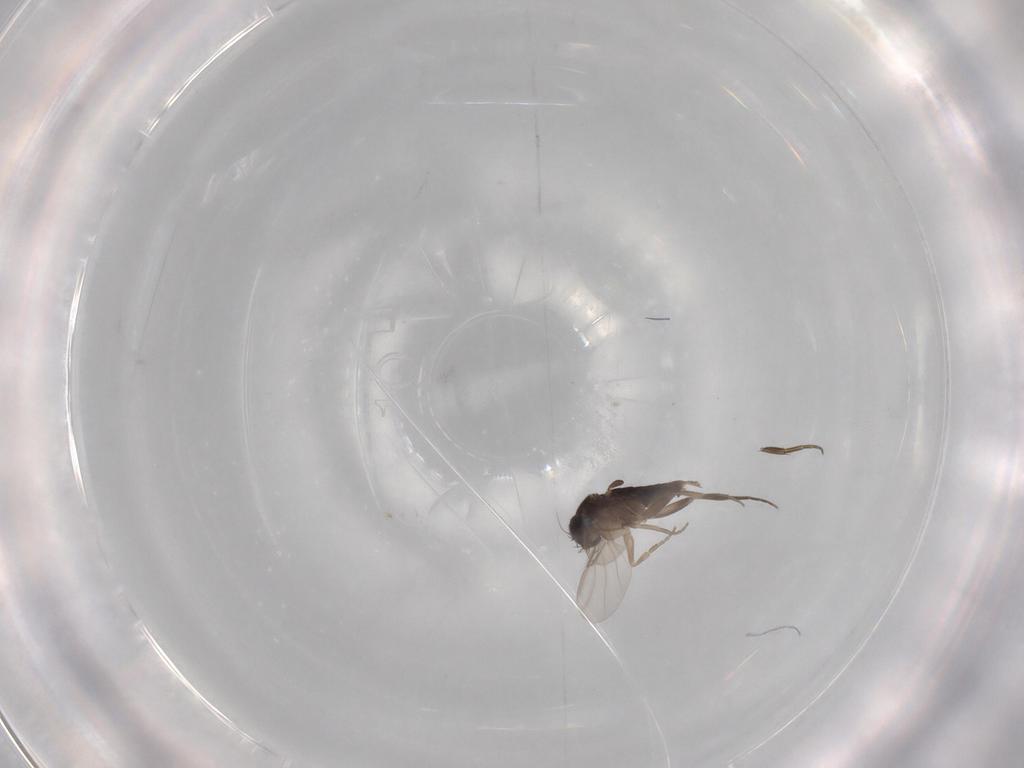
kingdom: Animalia
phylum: Arthropoda
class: Insecta
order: Diptera
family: Phoridae
